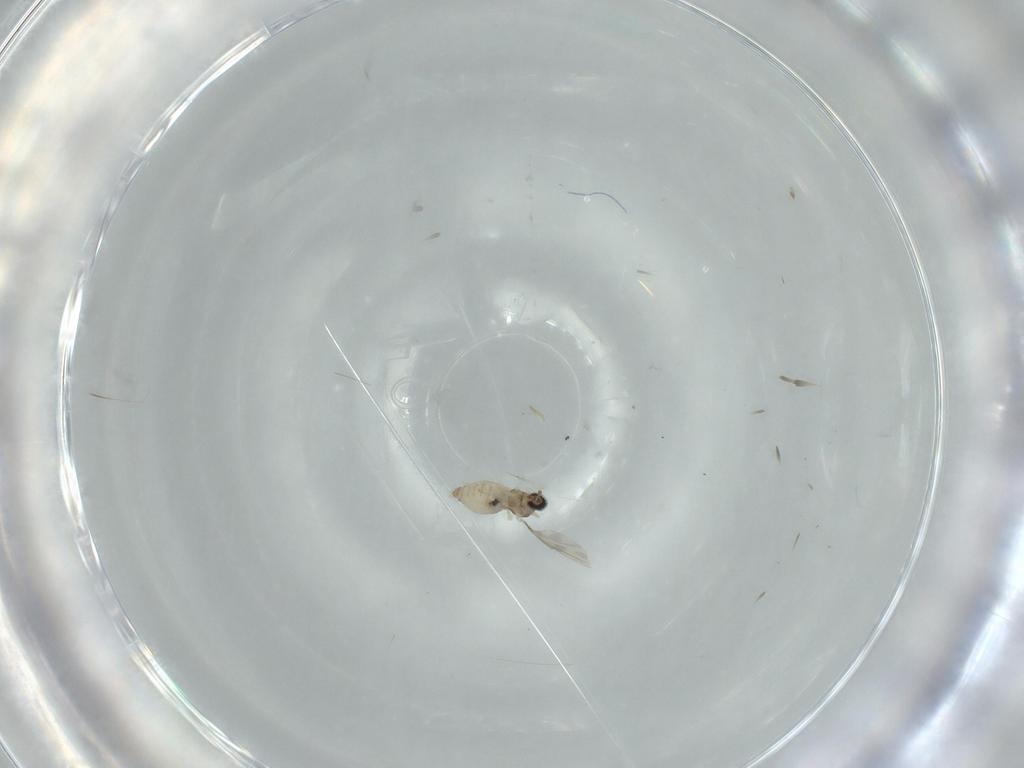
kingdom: Animalia
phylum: Arthropoda
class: Insecta
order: Diptera
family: Cecidomyiidae
